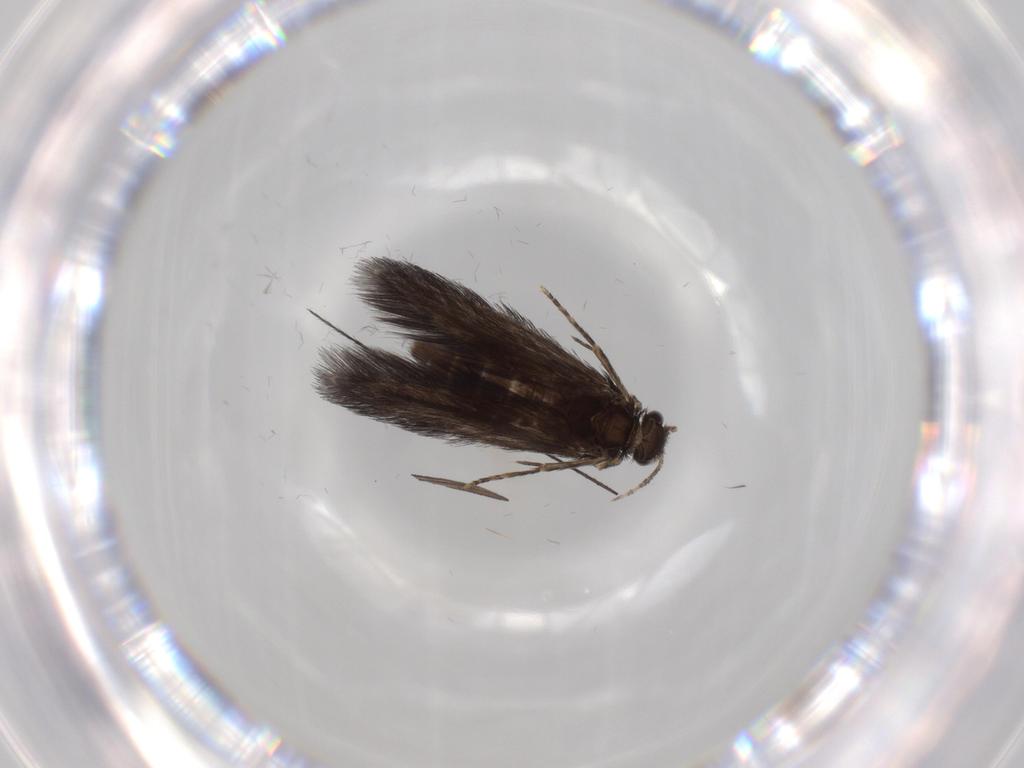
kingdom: Animalia
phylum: Arthropoda
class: Insecta
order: Trichoptera
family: Hydroptilidae
